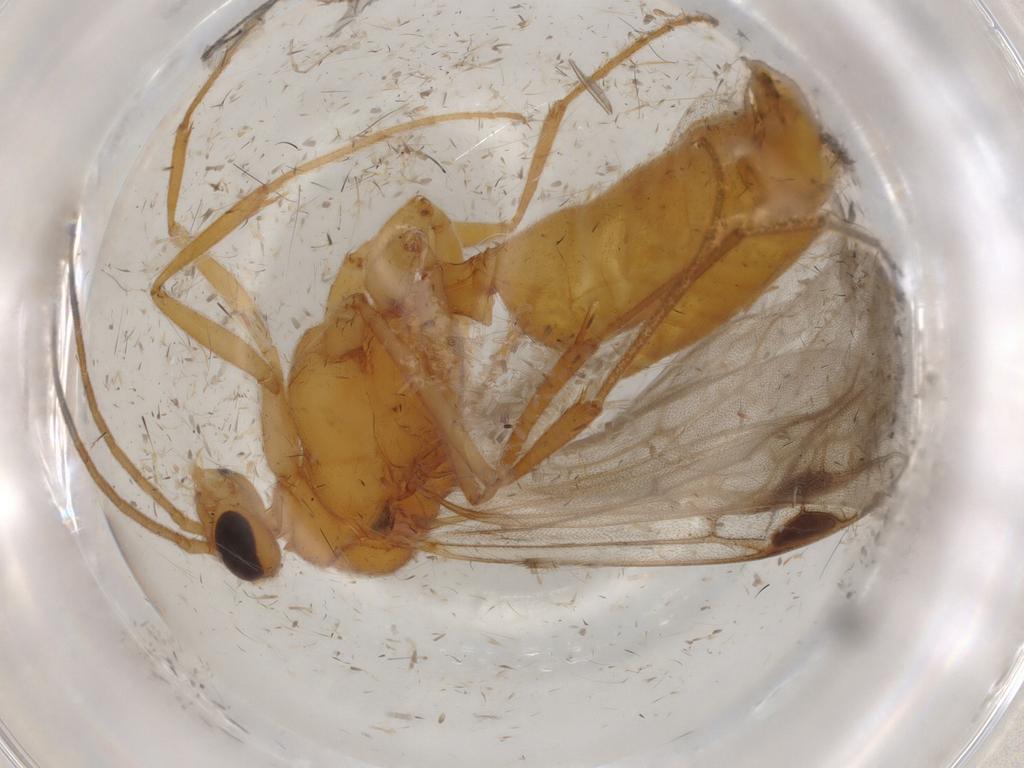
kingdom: Animalia
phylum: Arthropoda
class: Insecta
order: Hymenoptera
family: Formicidae
